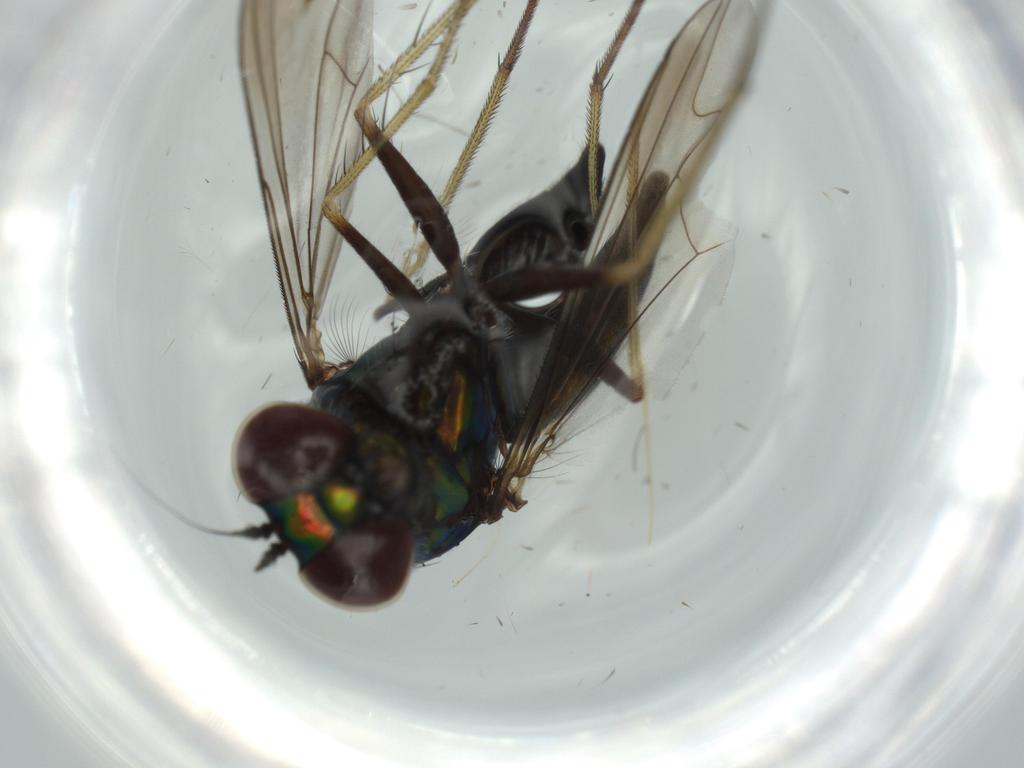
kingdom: Animalia
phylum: Arthropoda
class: Insecta
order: Diptera
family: Dolichopodidae
